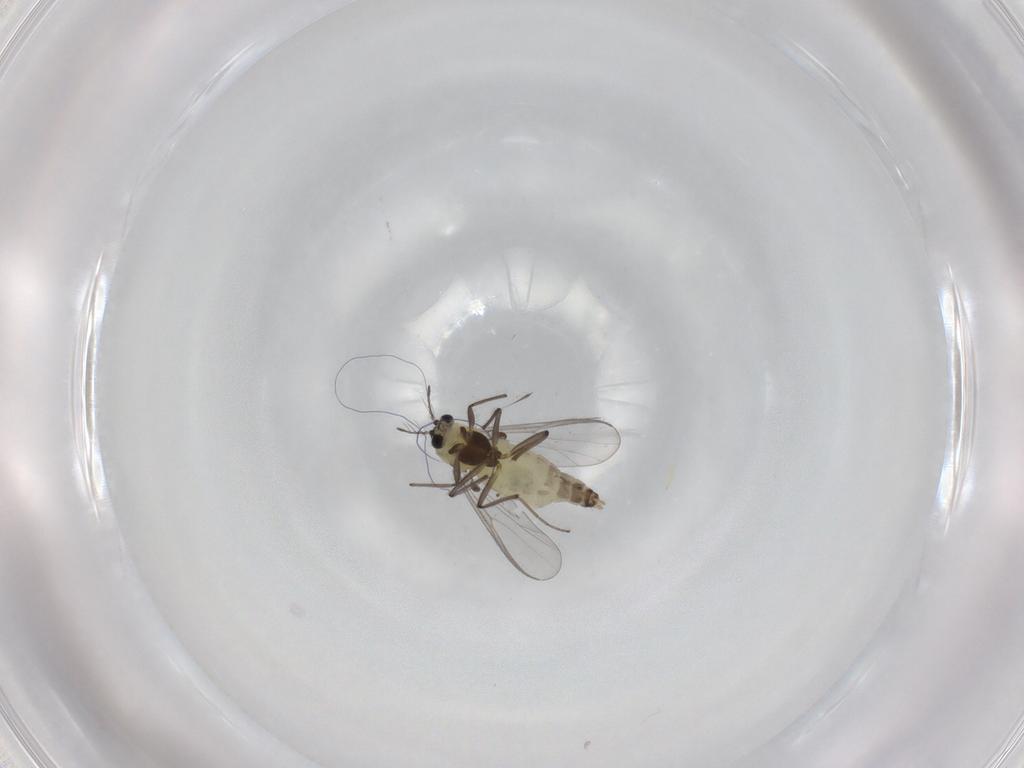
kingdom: Animalia
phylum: Arthropoda
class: Insecta
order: Diptera
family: Chironomidae
